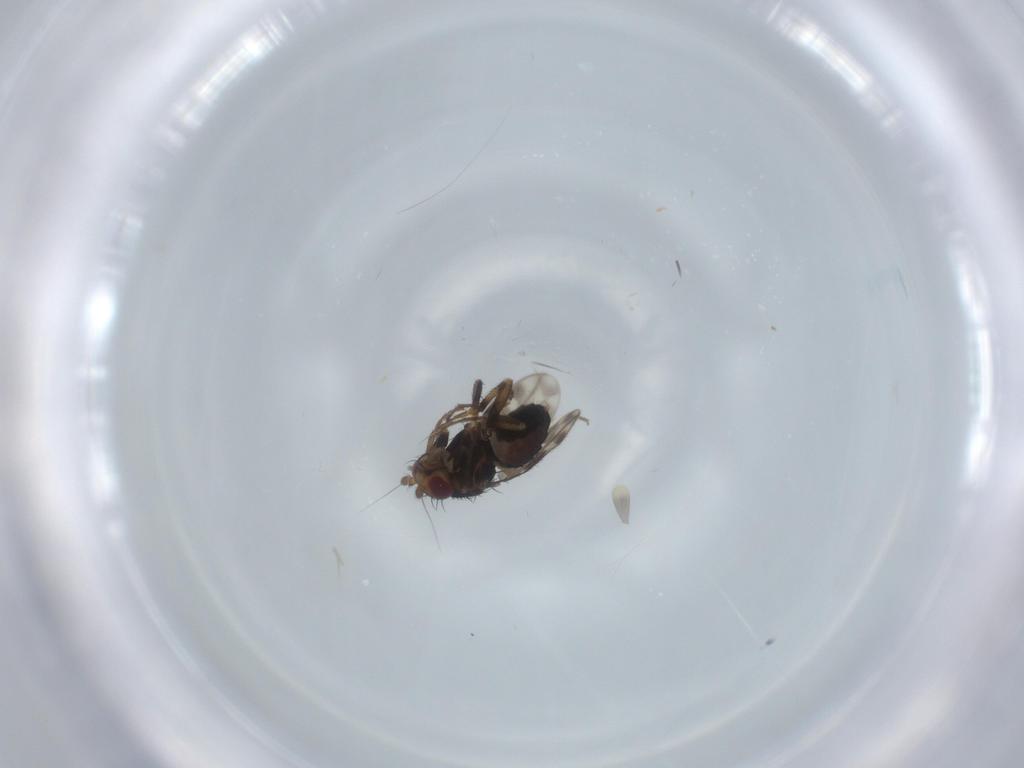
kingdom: Animalia
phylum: Arthropoda
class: Insecta
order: Diptera
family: Sphaeroceridae
